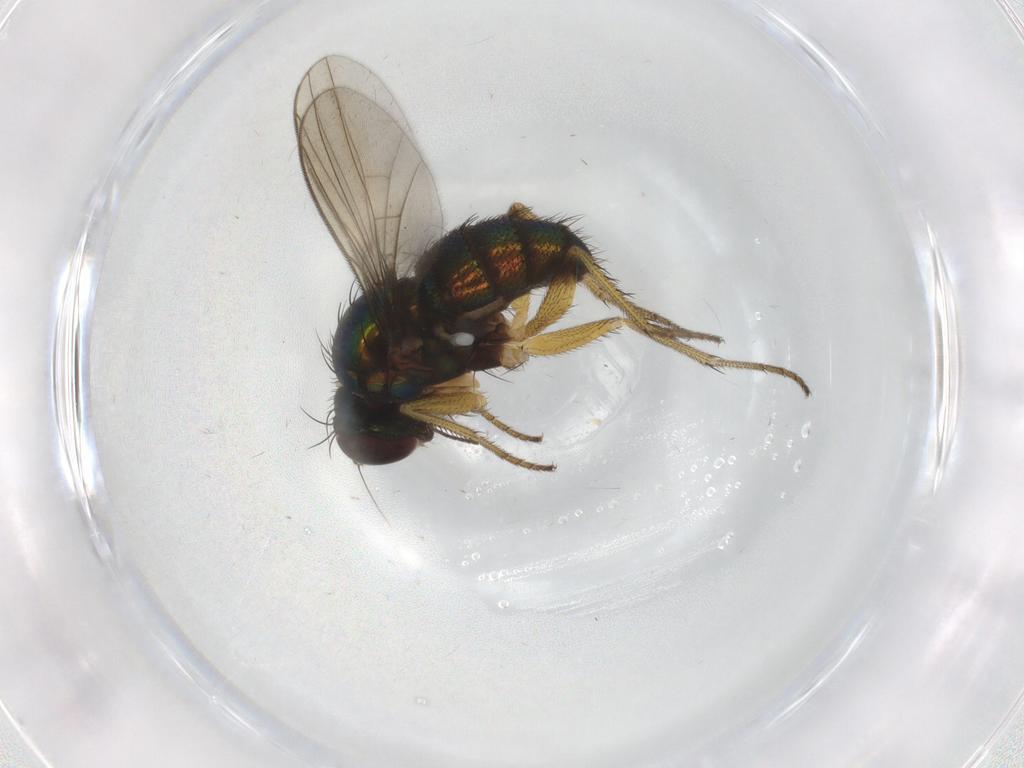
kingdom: Animalia
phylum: Arthropoda
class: Insecta
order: Diptera
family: Dolichopodidae
